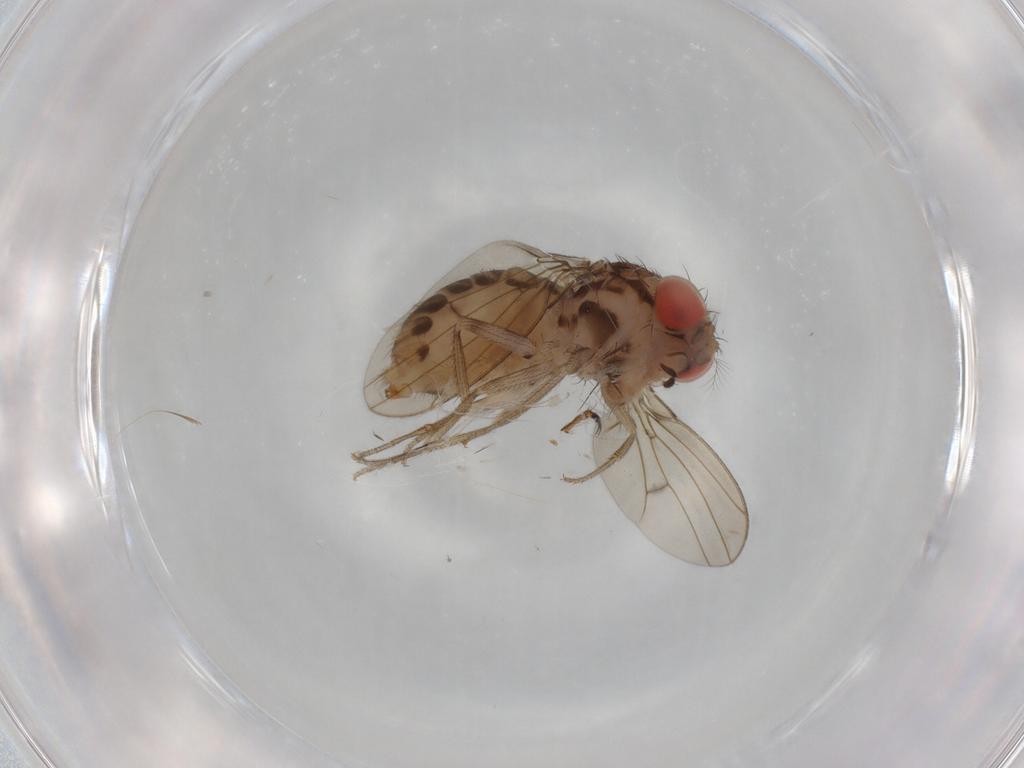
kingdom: Animalia
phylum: Arthropoda
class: Insecta
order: Diptera
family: Drosophilidae
